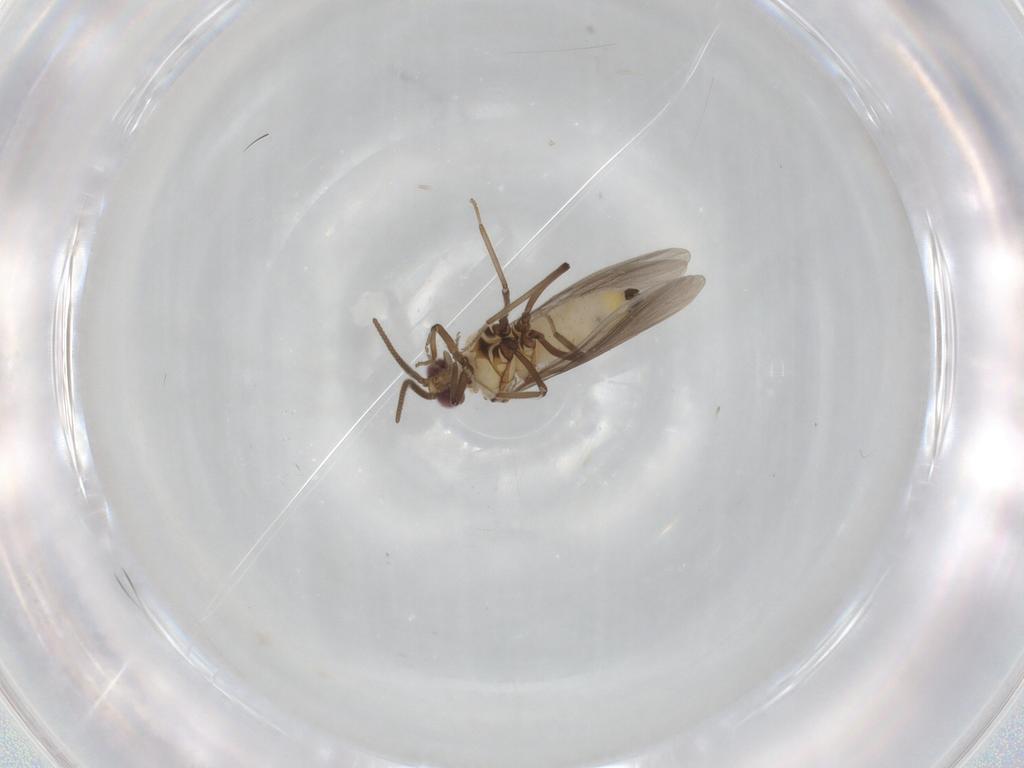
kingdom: Animalia
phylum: Arthropoda
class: Insecta
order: Neuroptera
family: Coniopterygidae
